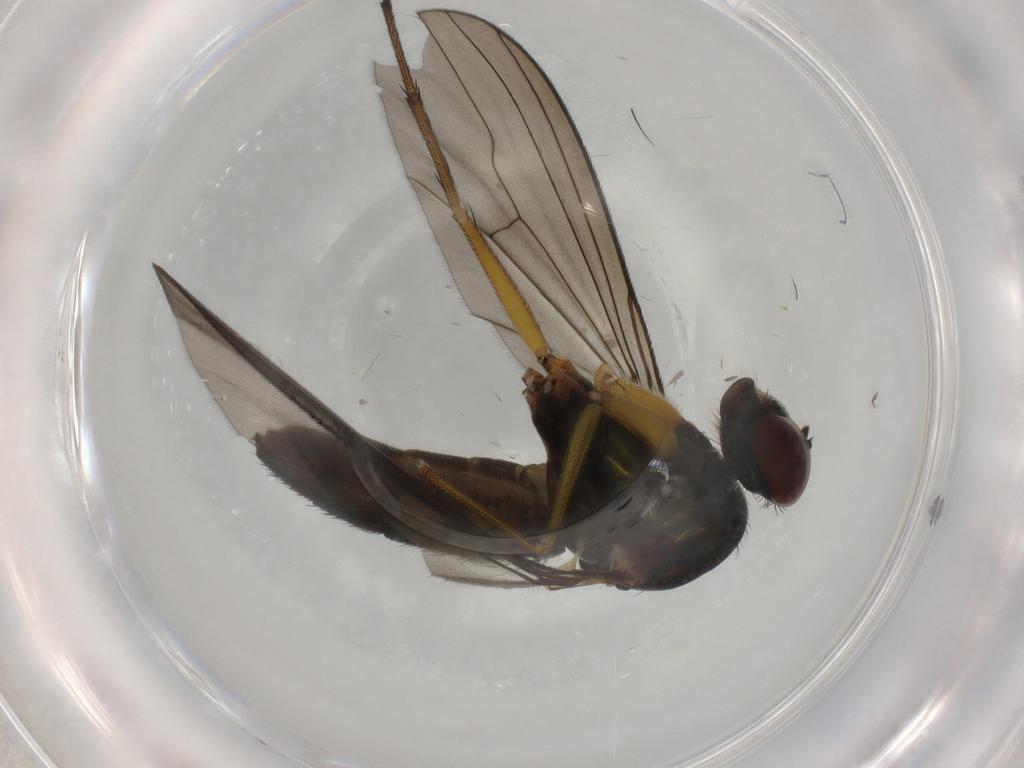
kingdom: Animalia
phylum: Arthropoda
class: Insecta
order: Diptera
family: Dolichopodidae
